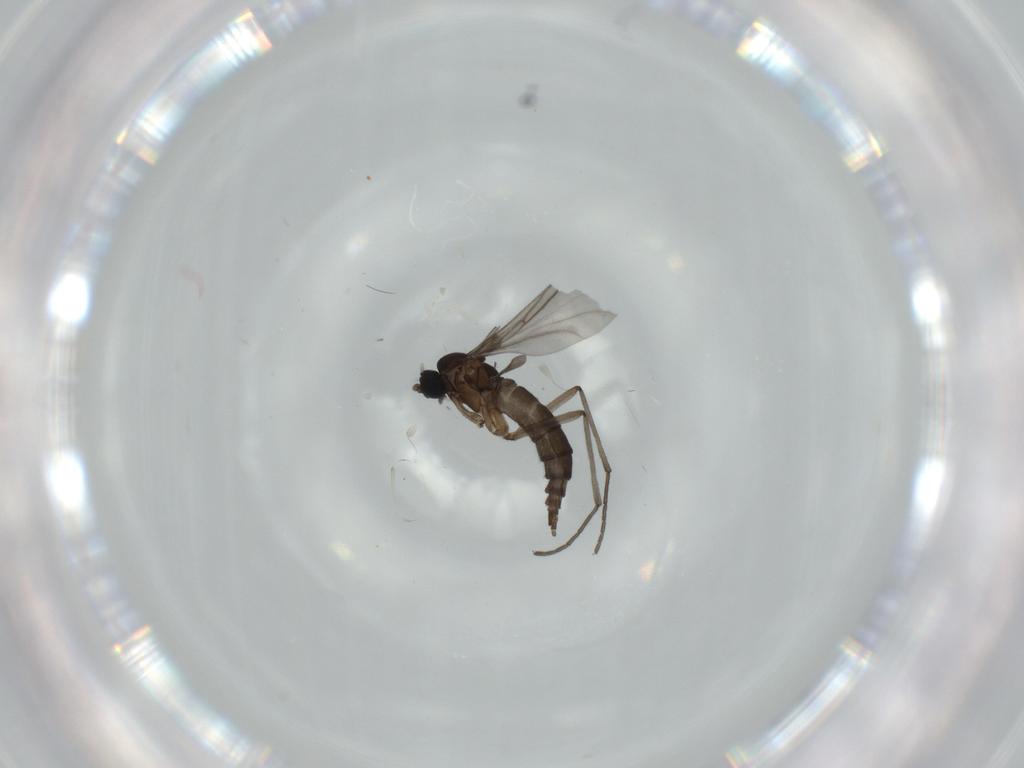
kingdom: Animalia
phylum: Arthropoda
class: Insecta
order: Diptera
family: Sciaridae
